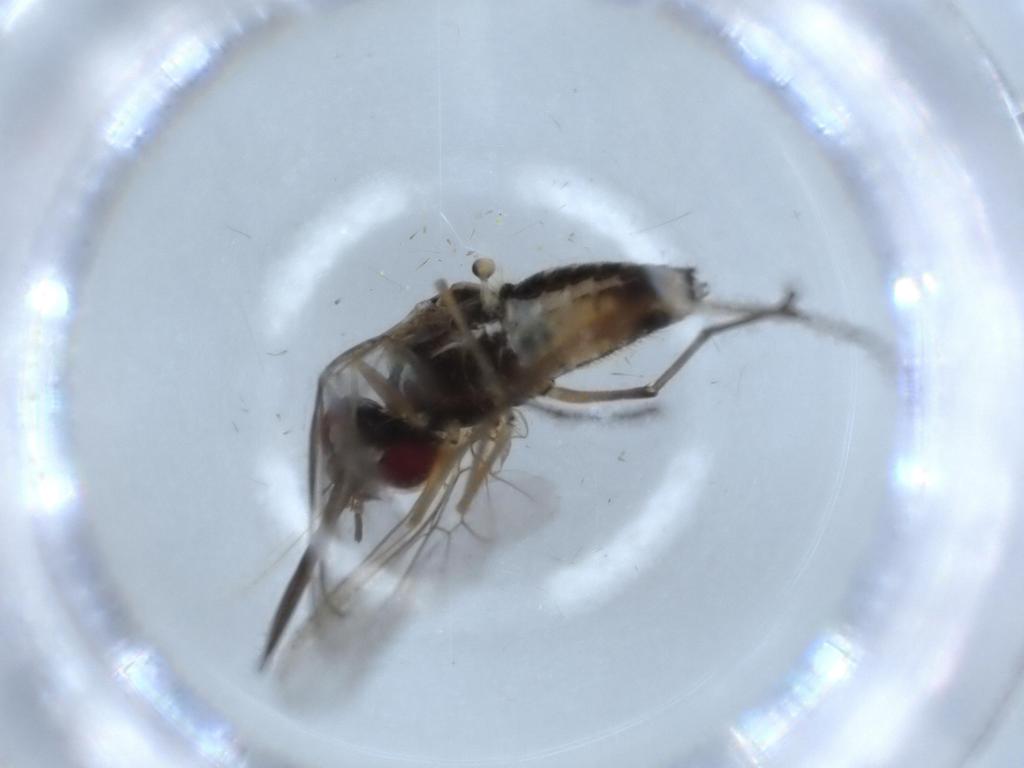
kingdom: Animalia
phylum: Arthropoda
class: Insecta
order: Diptera
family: Bombyliidae
